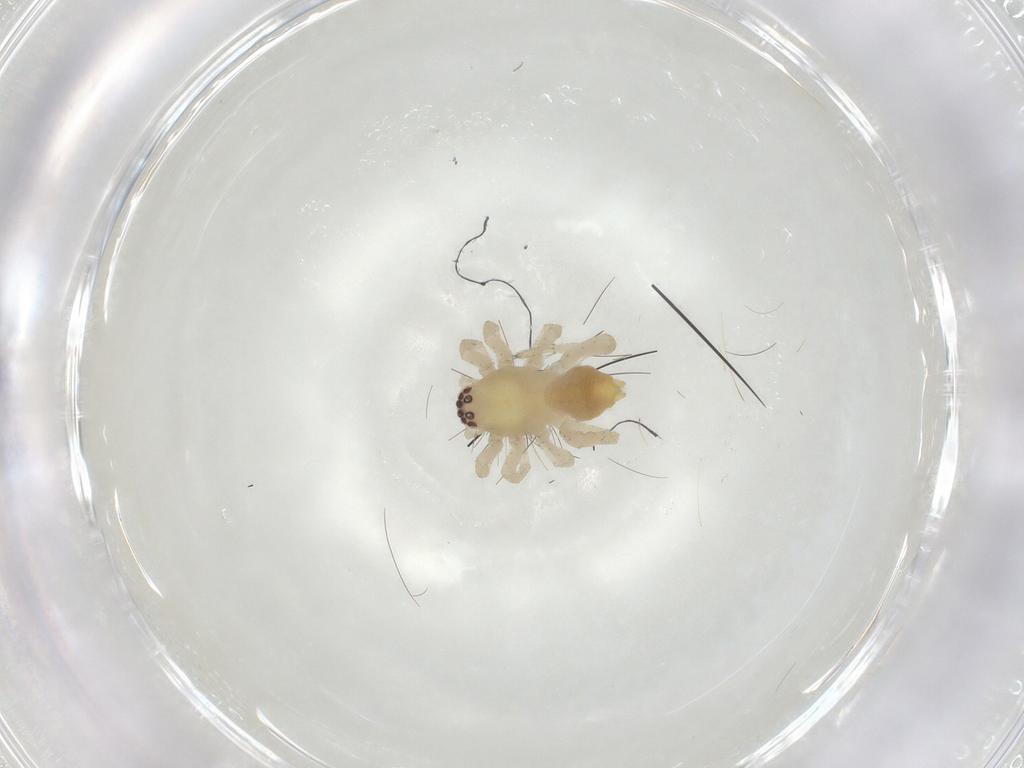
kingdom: Animalia
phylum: Arthropoda
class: Arachnida
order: Araneae
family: Clubionidae
